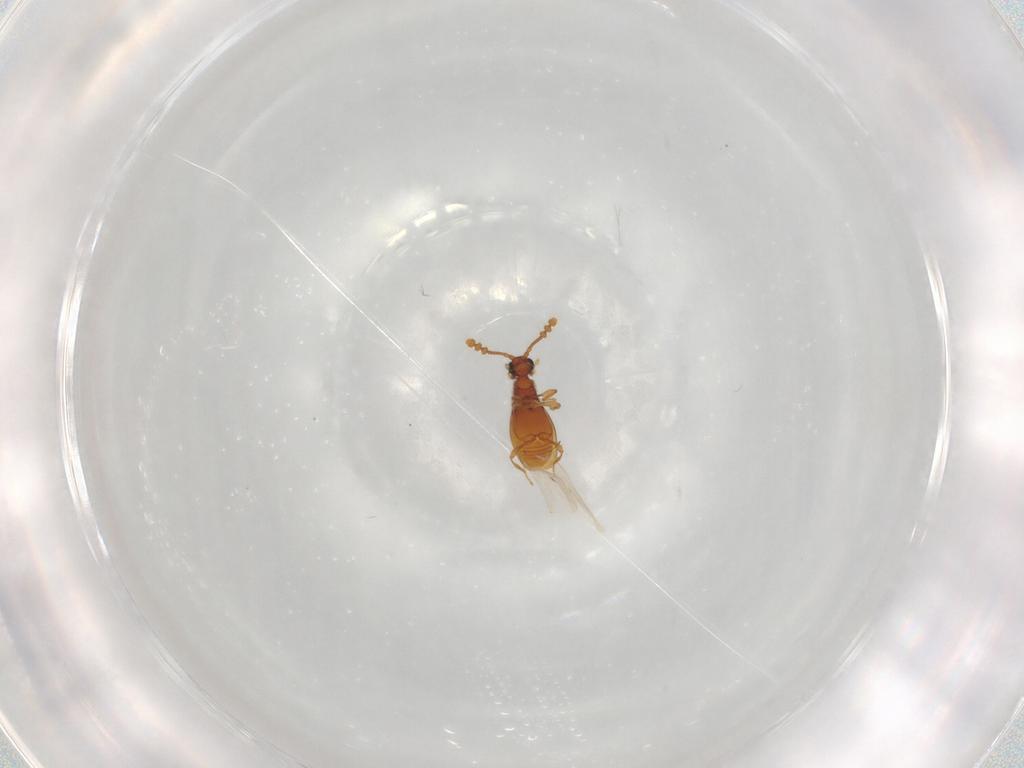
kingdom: Animalia
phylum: Arthropoda
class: Insecta
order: Coleoptera
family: Staphylinidae
